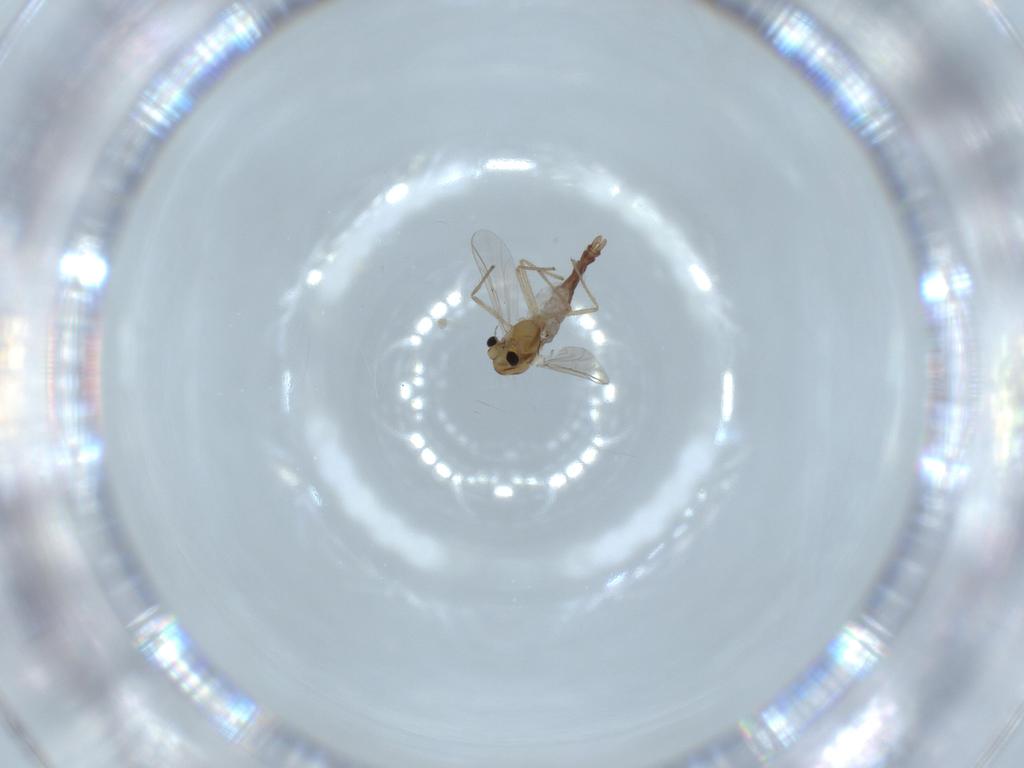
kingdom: Animalia
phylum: Arthropoda
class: Insecta
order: Diptera
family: Chironomidae
